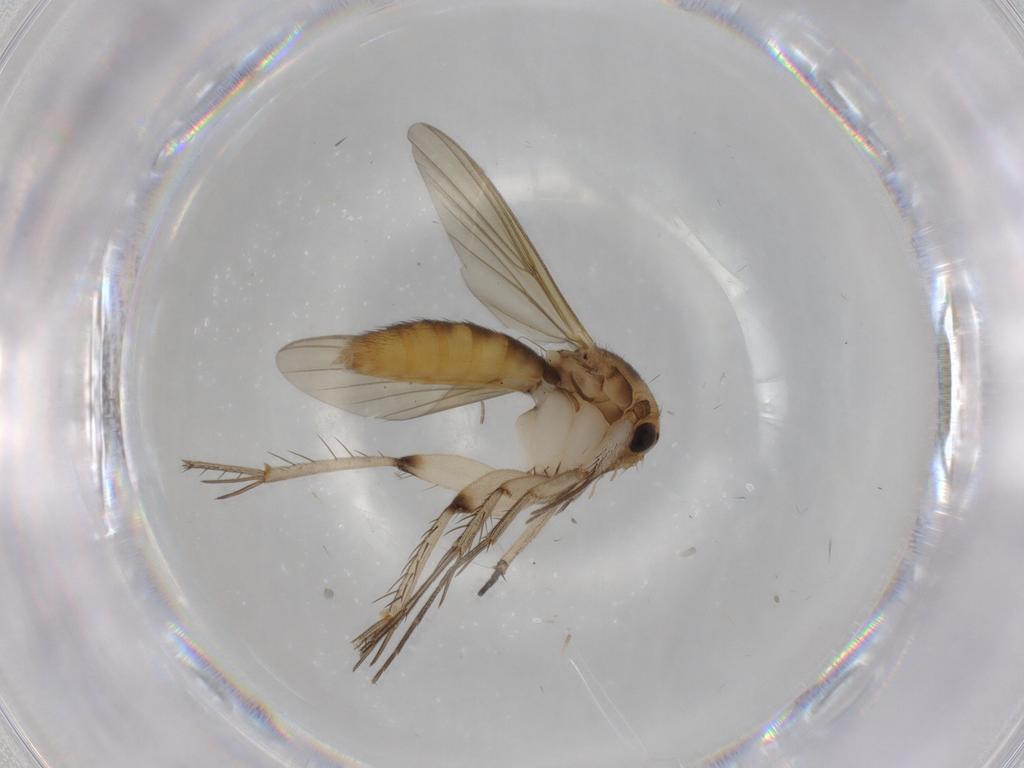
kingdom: Animalia
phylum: Arthropoda
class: Insecta
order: Diptera
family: Mycetophilidae
